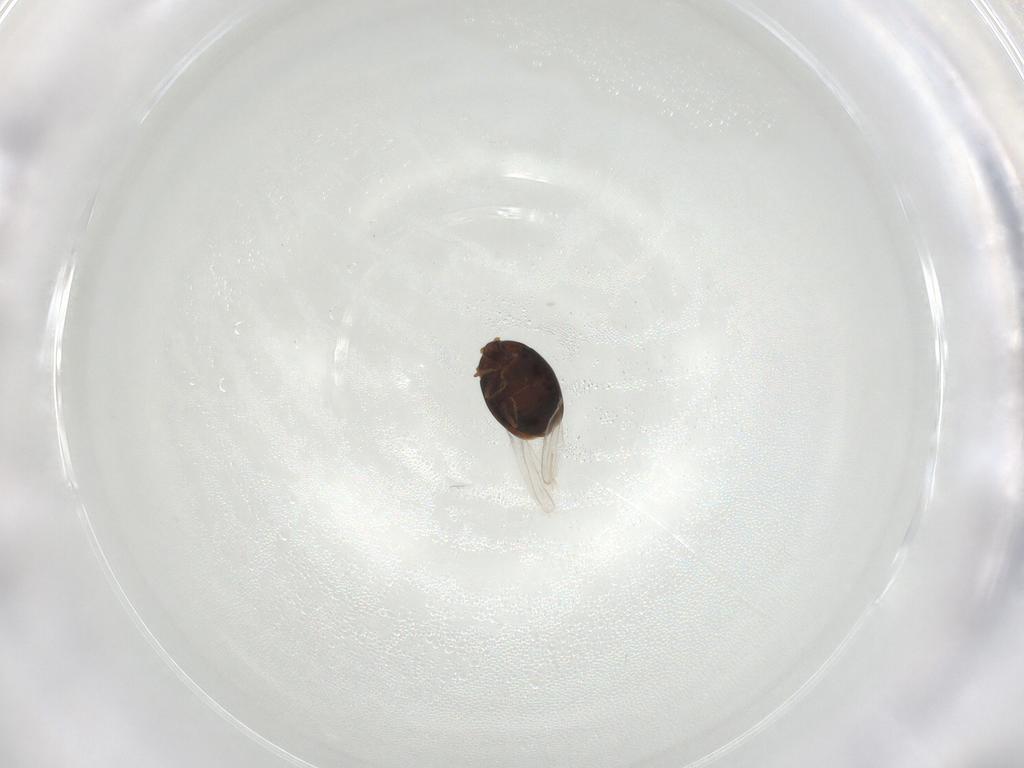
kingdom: Animalia
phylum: Arthropoda
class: Insecta
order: Coleoptera
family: Corylophidae
